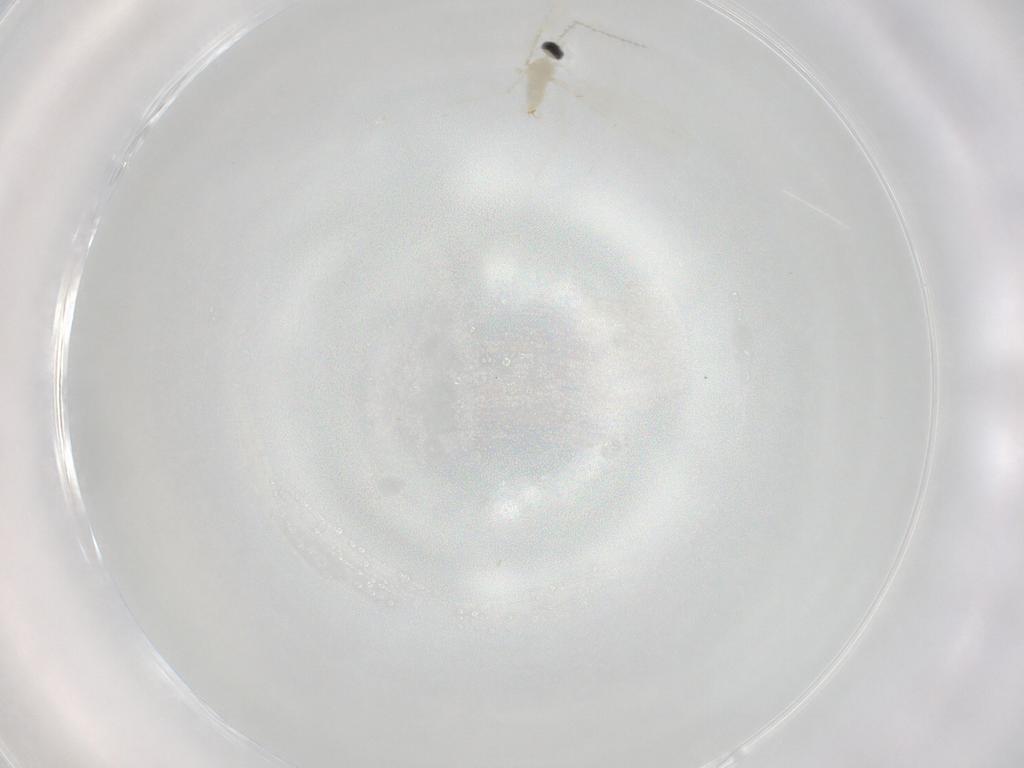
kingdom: Animalia
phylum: Arthropoda
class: Insecta
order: Diptera
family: Cecidomyiidae
